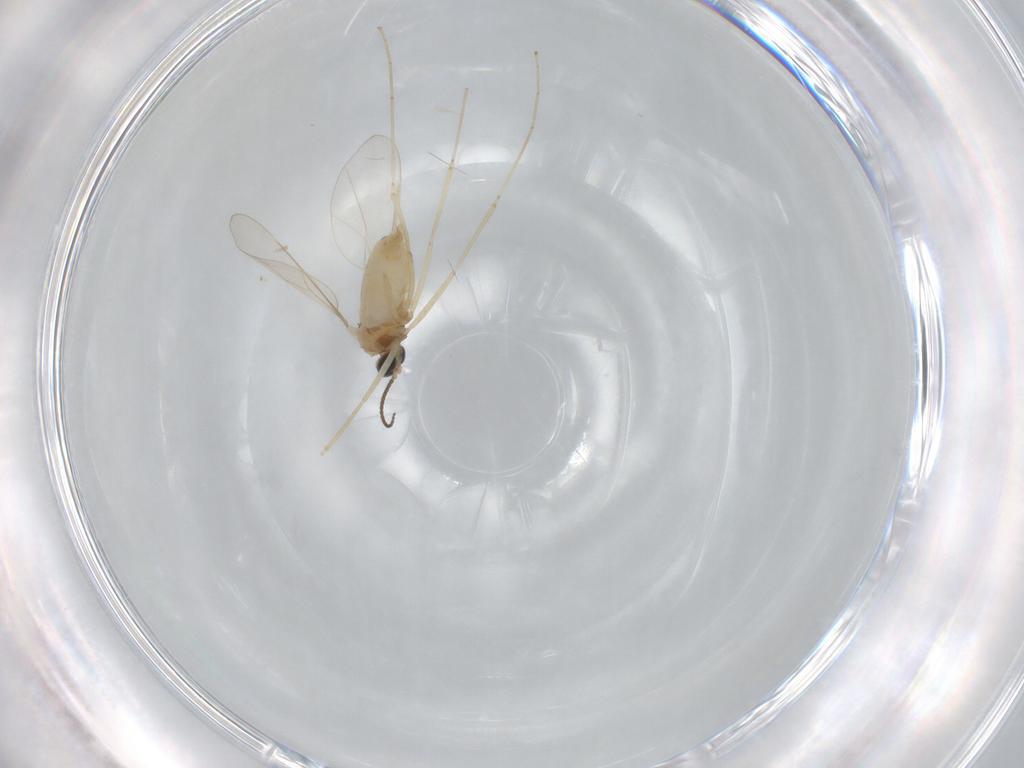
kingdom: Animalia
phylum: Arthropoda
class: Insecta
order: Diptera
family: Cecidomyiidae
